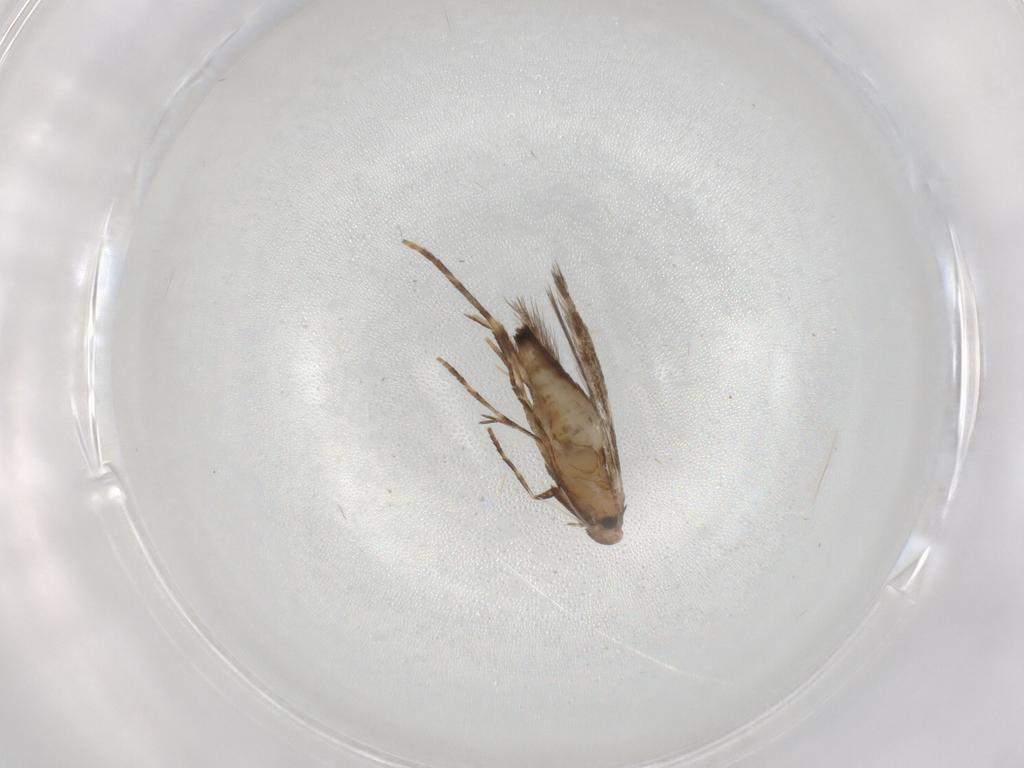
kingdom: Animalia
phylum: Arthropoda
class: Insecta
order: Lepidoptera
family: Gracillariidae
